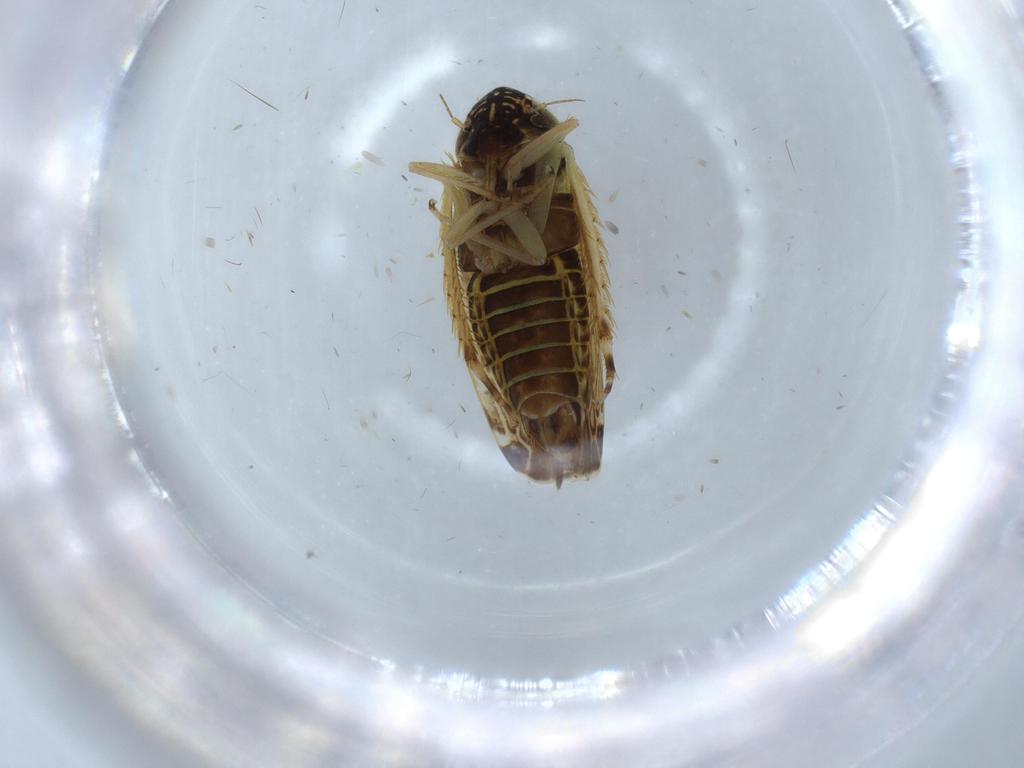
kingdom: Animalia
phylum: Arthropoda
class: Insecta
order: Hemiptera
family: Cicadellidae
